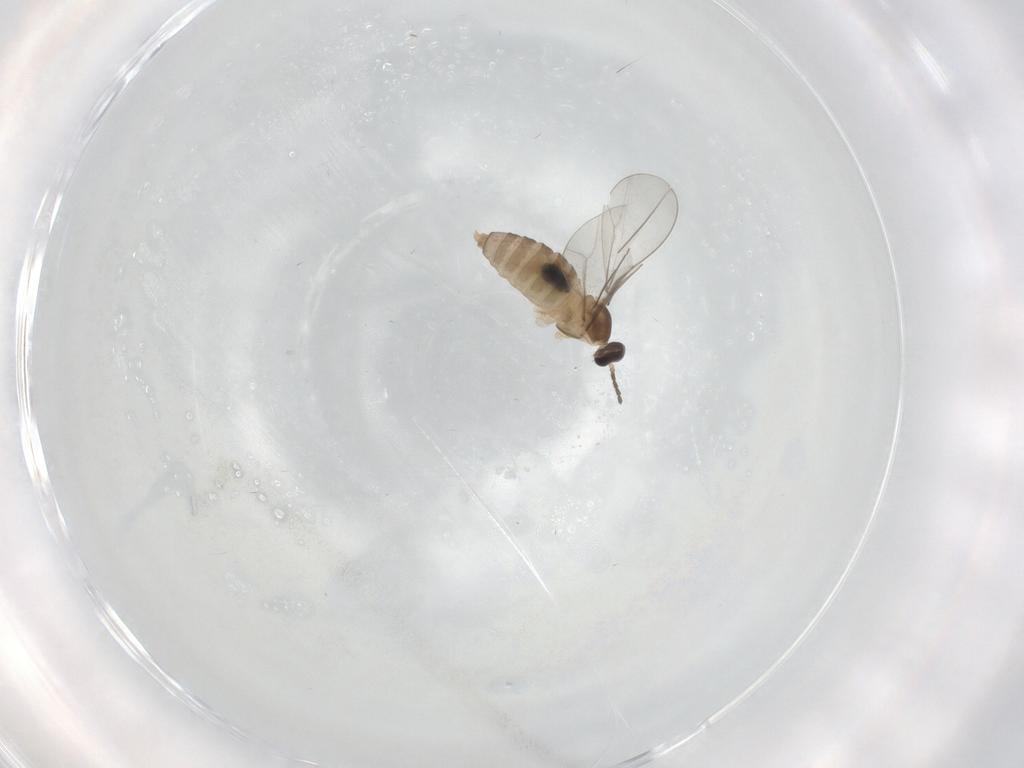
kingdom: Animalia
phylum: Arthropoda
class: Insecta
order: Diptera
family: Cecidomyiidae
